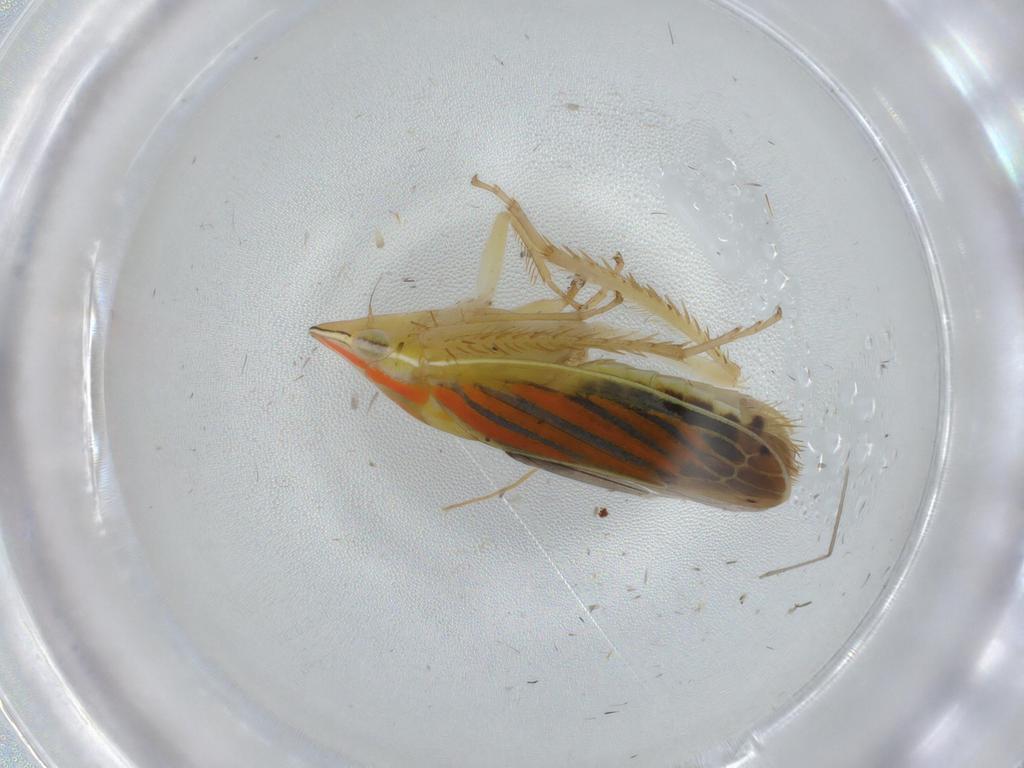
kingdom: Animalia
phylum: Arthropoda
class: Insecta
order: Hemiptera
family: Cicadellidae
